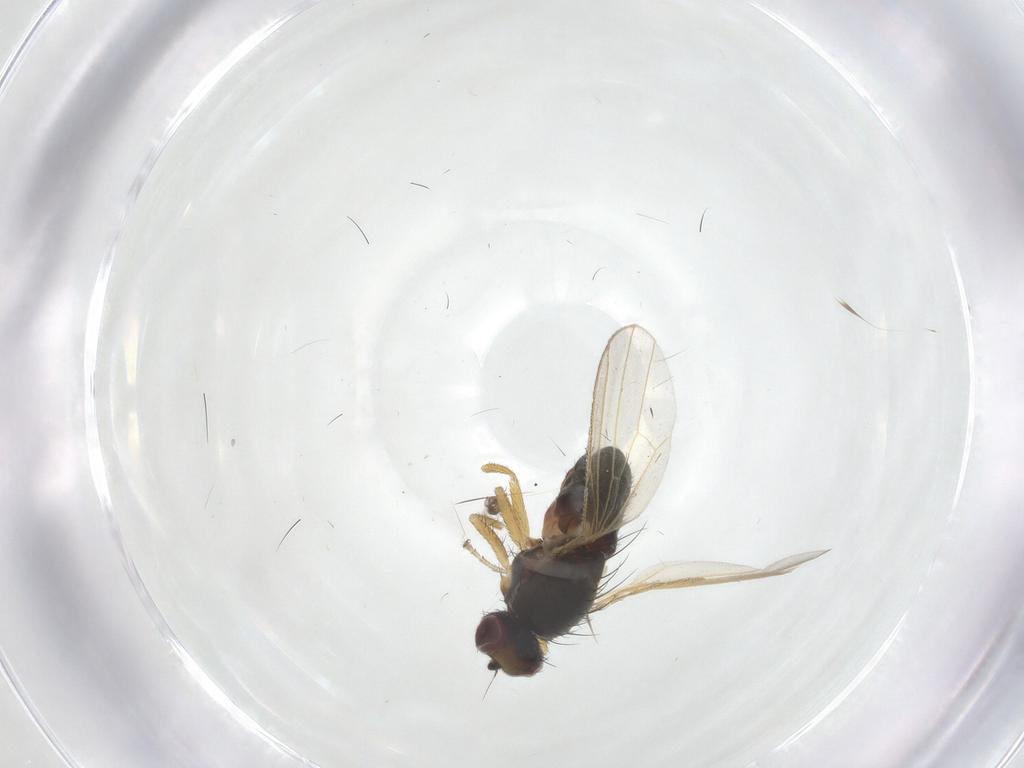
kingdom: Animalia
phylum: Arthropoda
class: Insecta
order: Diptera
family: Heleomyzidae
